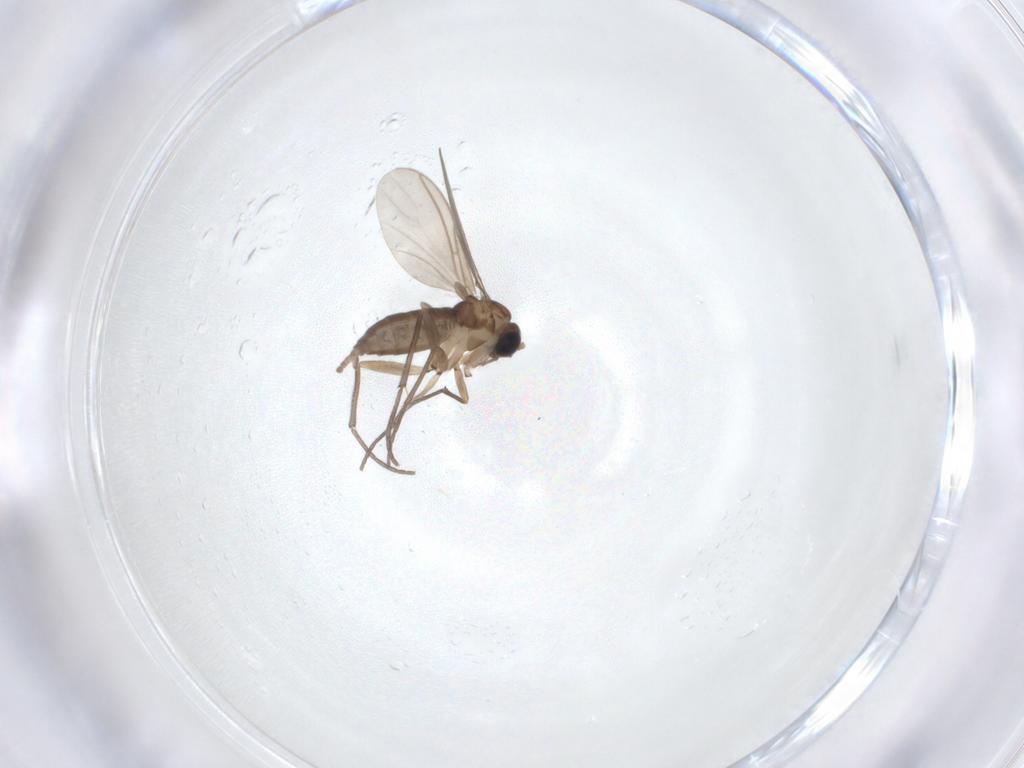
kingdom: Animalia
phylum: Arthropoda
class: Insecta
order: Diptera
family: Sciaridae
